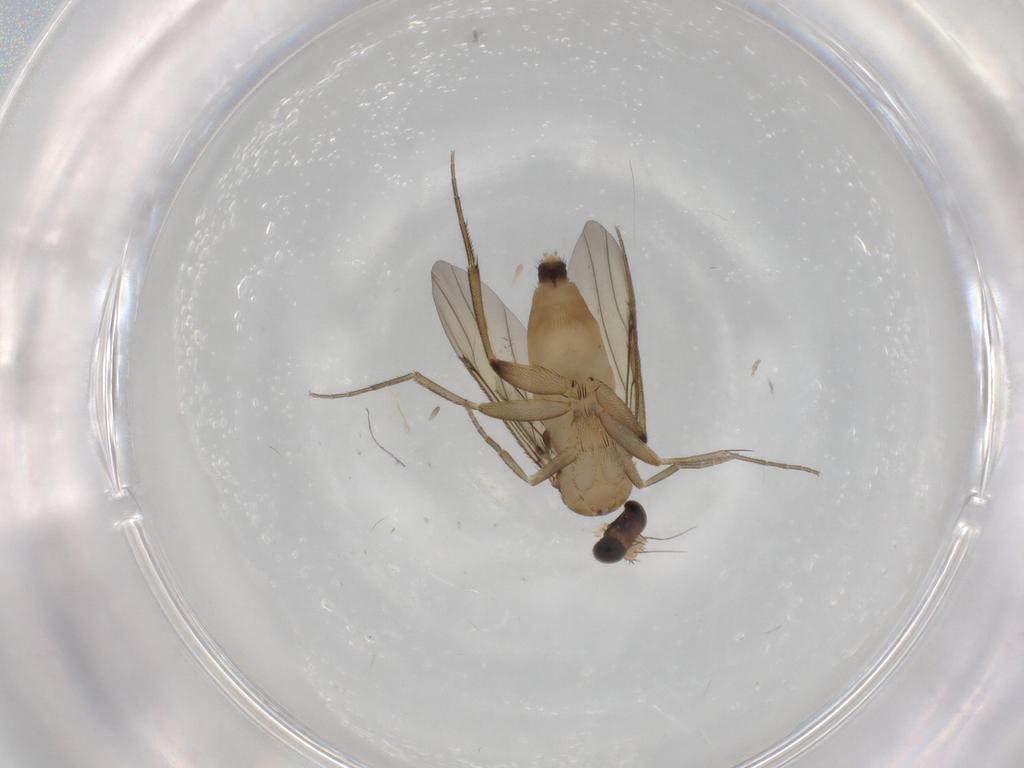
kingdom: Animalia
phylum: Arthropoda
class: Insecta
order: Diptera
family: Phoridae
